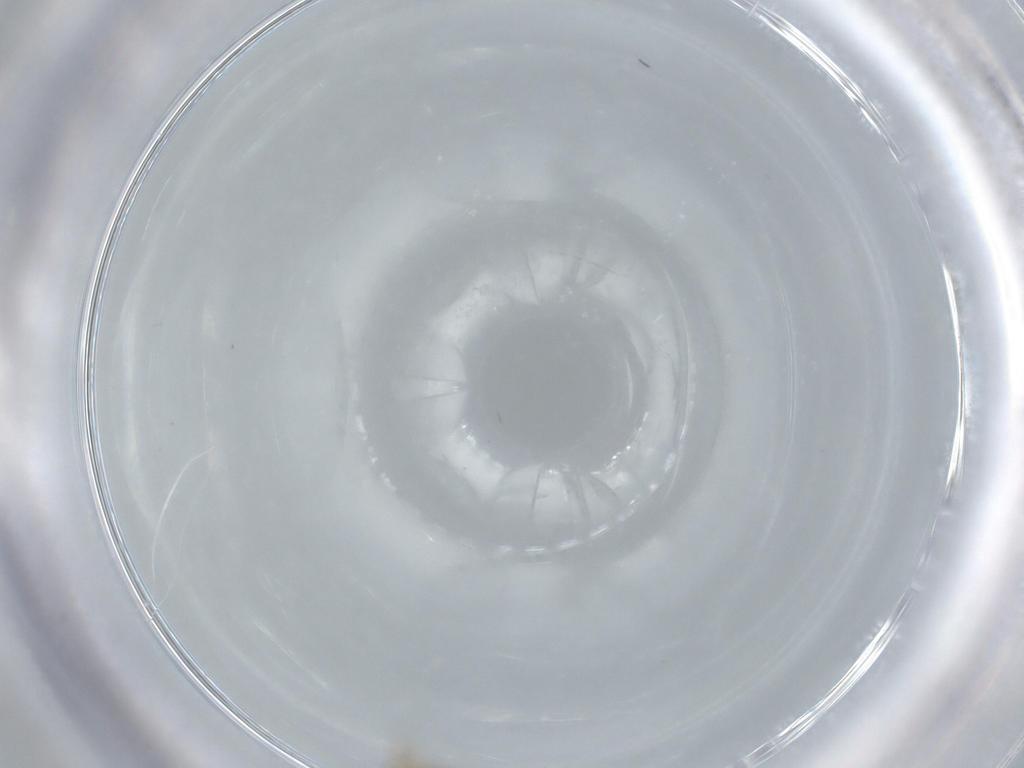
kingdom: Animalia
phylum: Arthropoda
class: Insecta
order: Hymenoptera
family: Scelionidae
